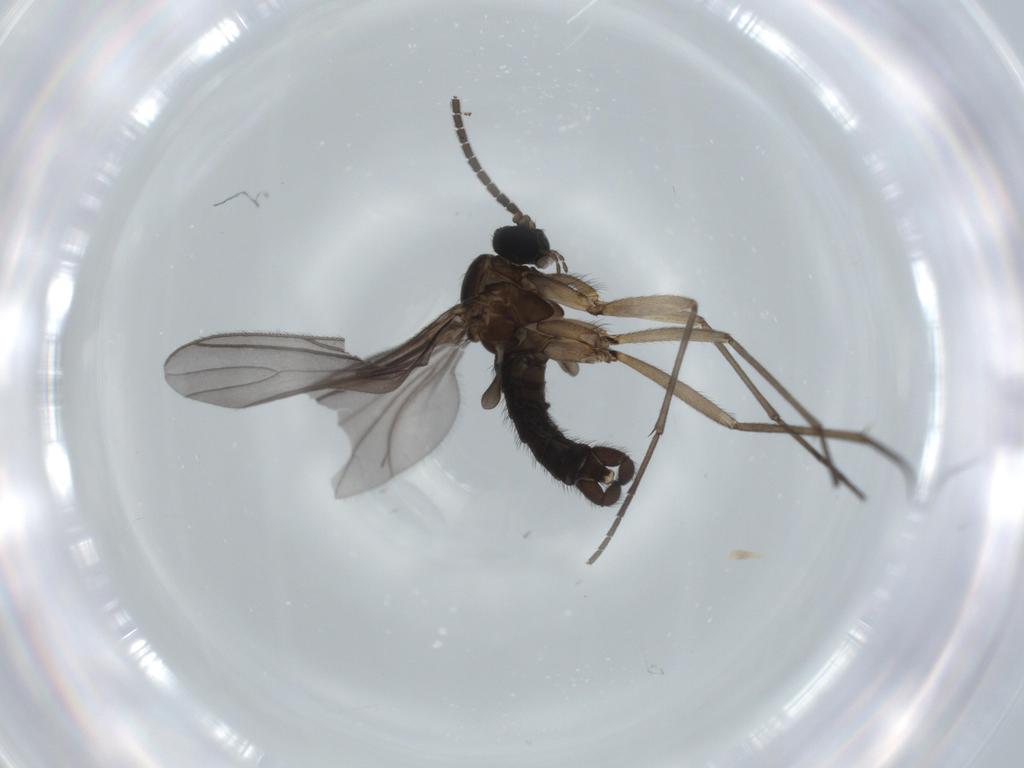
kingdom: Animalia
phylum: Arthropoda
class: Insecta
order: Diptera
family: Sciaridae
